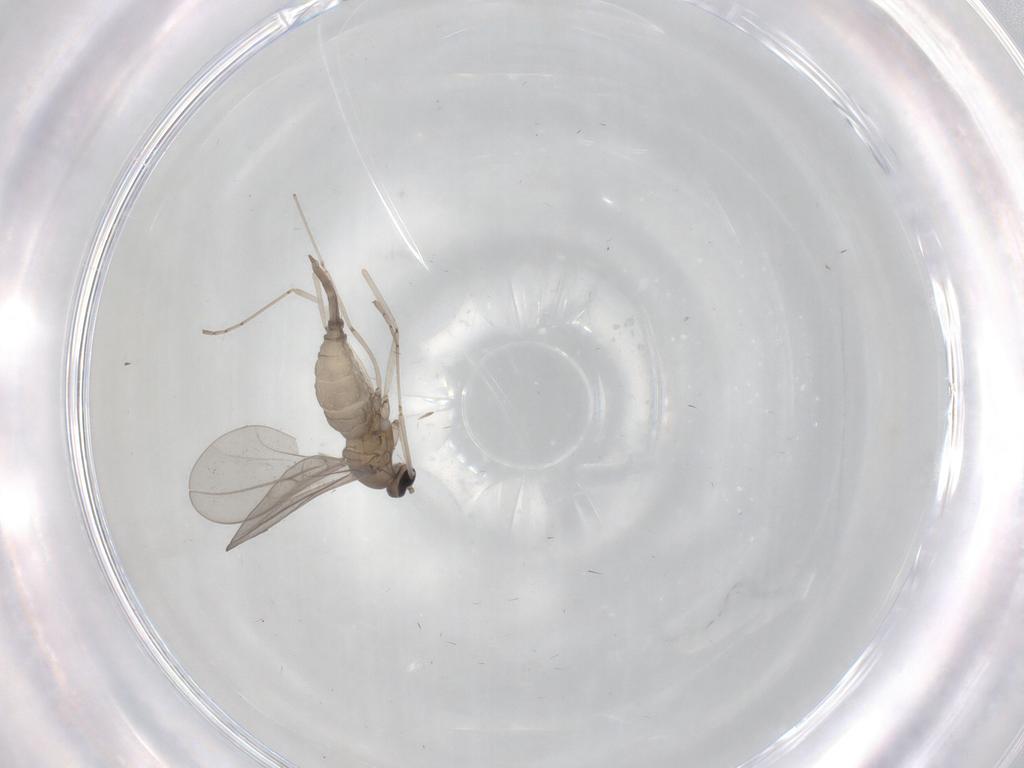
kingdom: Animalia
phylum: Arthropoda
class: Insecta
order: Diptera
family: Cecidomyiidae
